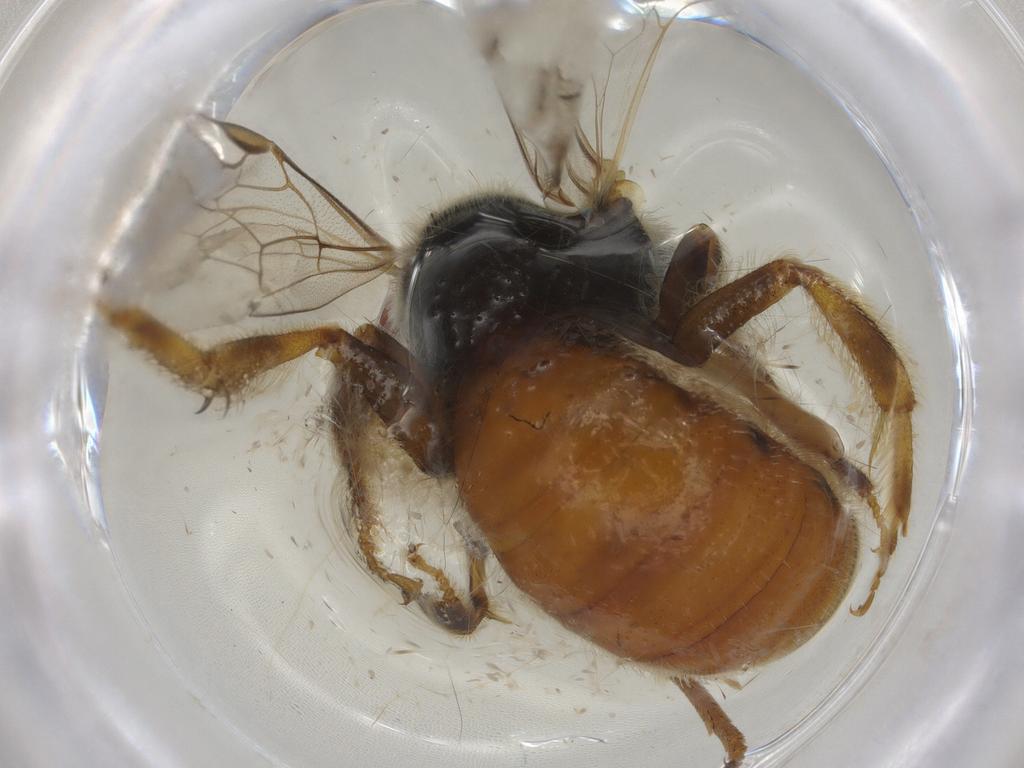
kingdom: Animalia
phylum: Arthropoda
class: Insecta
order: Hymenoptera
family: Halictidae
